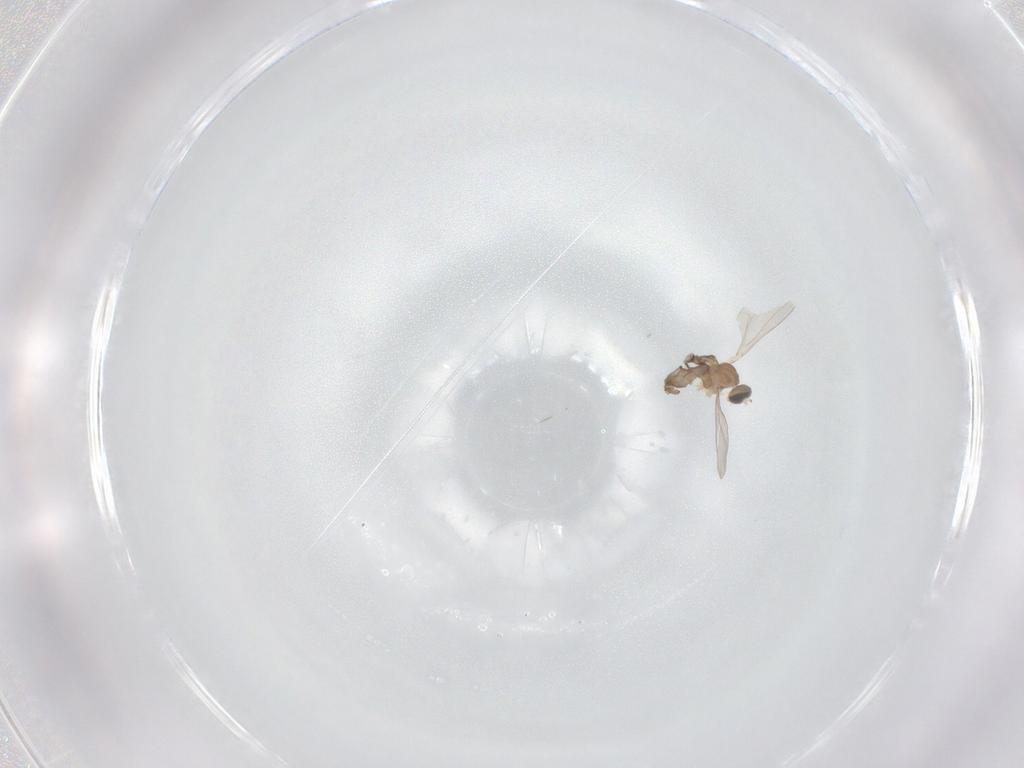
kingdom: Animalia
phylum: Arthropoda
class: Insecta
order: Diptera
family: Cecidomyiidae
